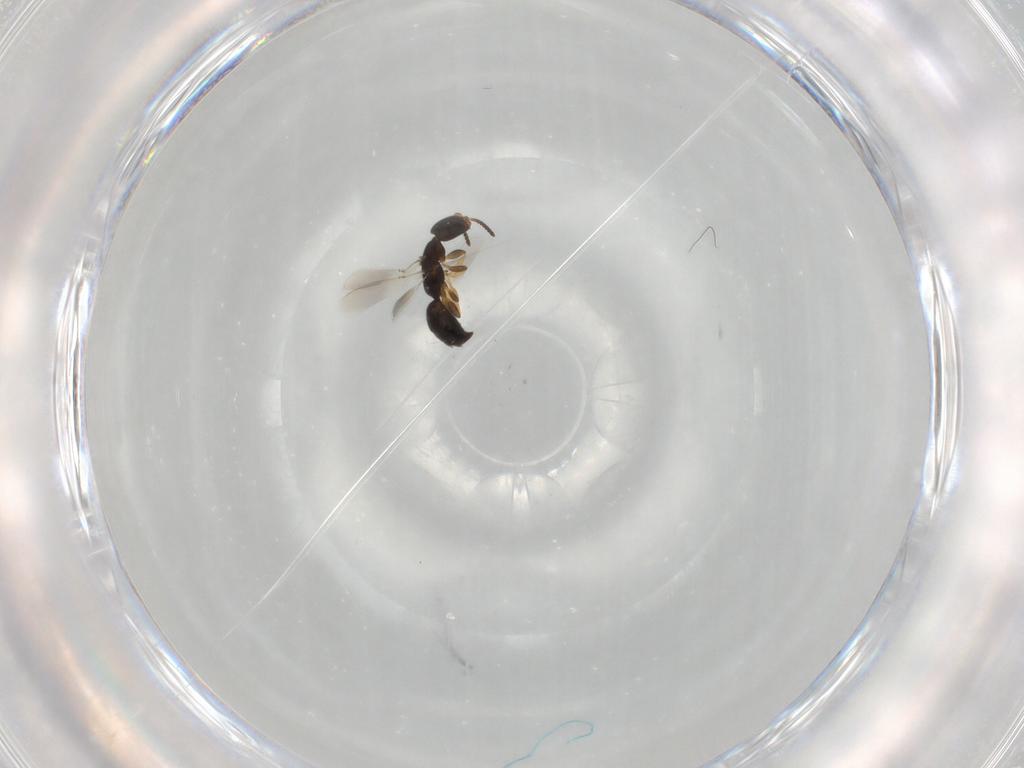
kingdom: Animalia
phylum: Arthropoda
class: Insecta
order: Hymenoptera
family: Bethylidae
